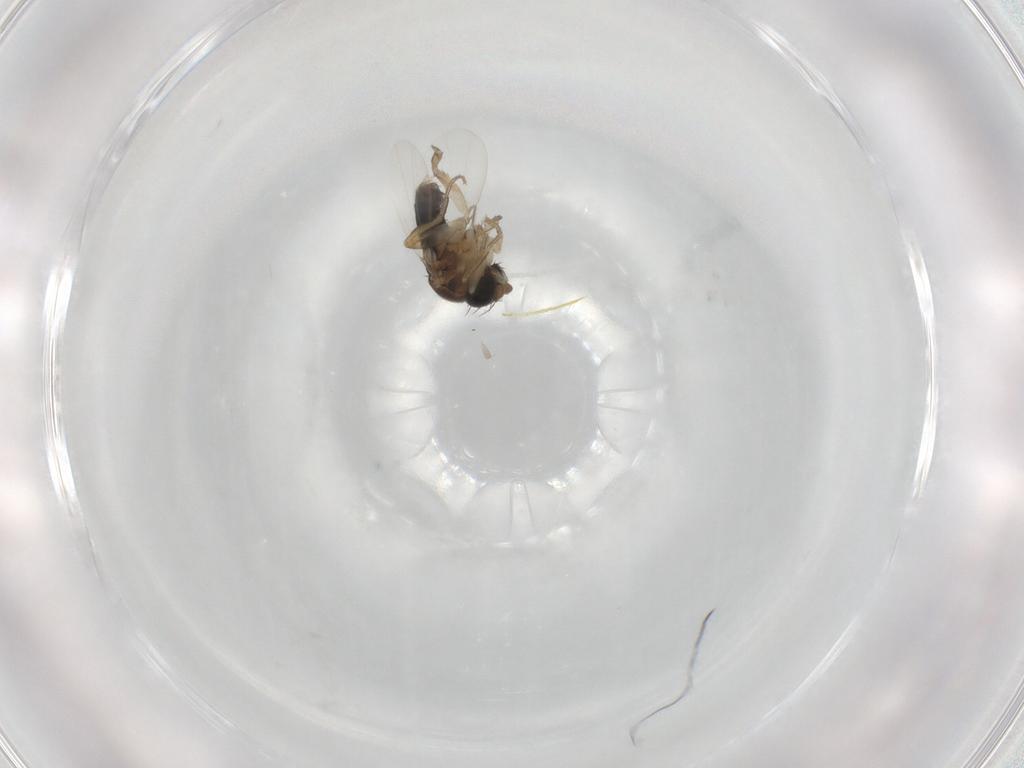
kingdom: Animalia
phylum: Arthropoda
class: Insecta
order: Diptera
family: Phoridae
